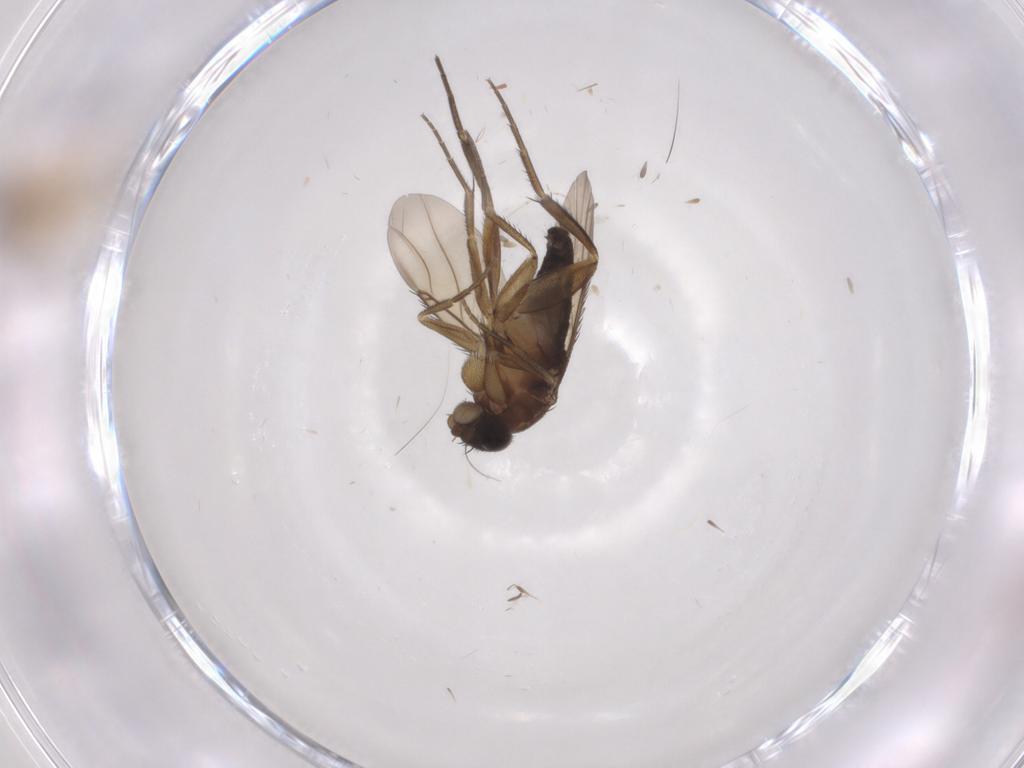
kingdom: Animalia
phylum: Arthropoda
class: Insecta
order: Diptera
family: Phoridae
